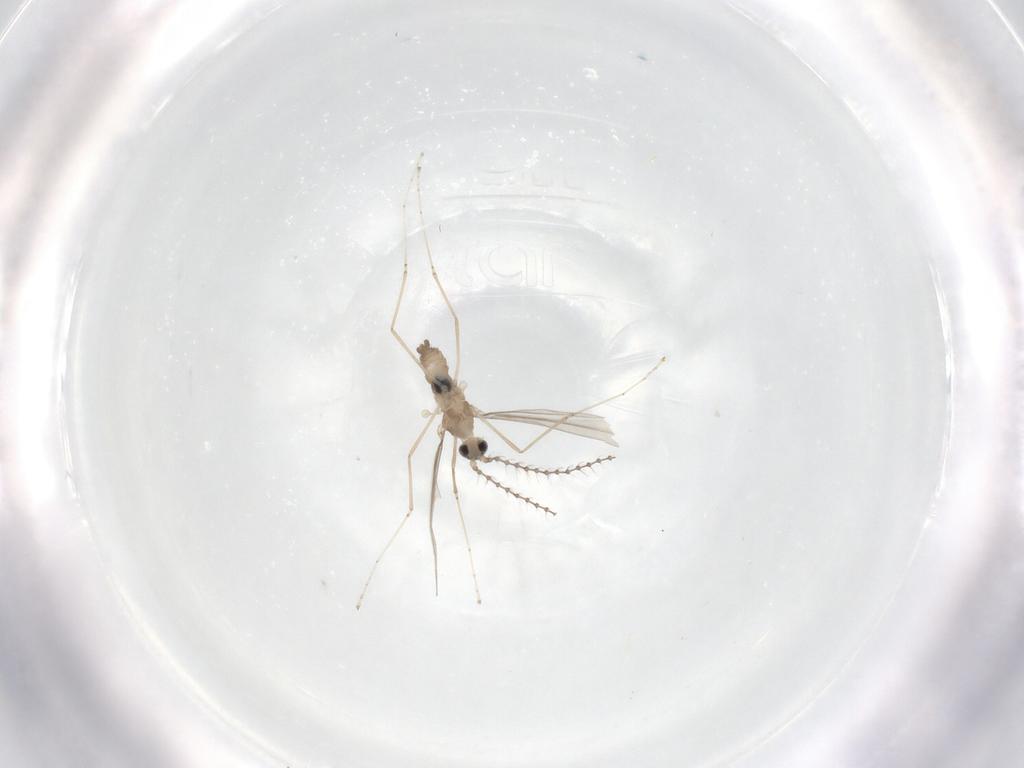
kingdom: Animalia
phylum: Arthropoda
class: Insecta
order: Diptera
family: Cecidomyiidae
